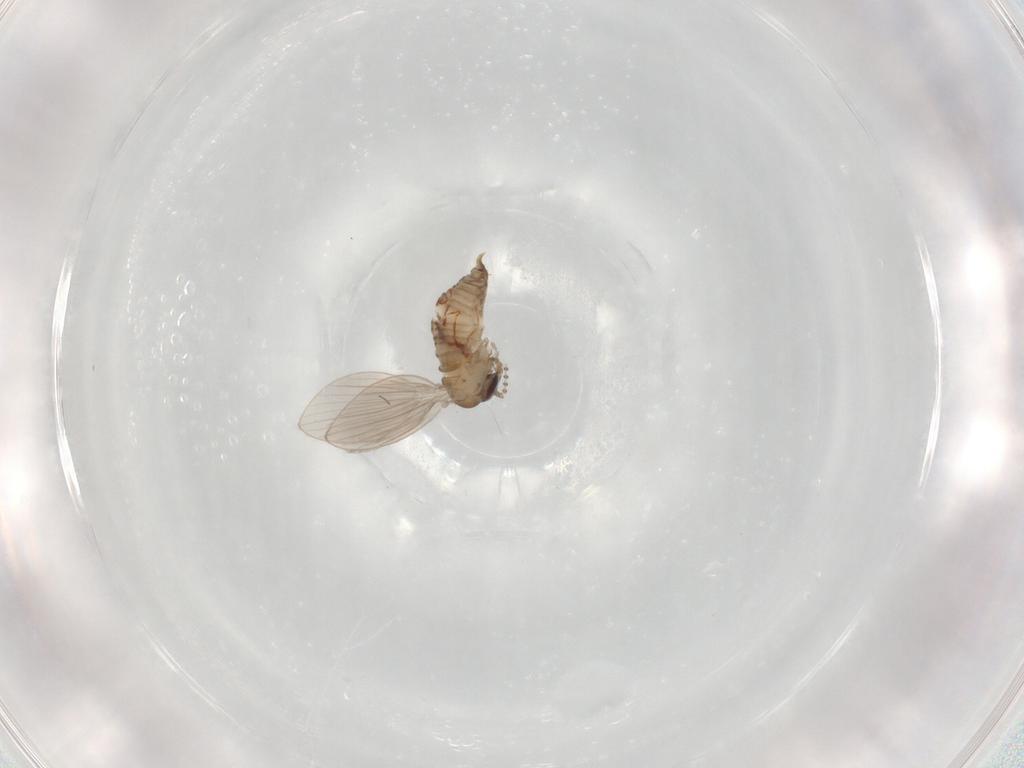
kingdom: Animalia
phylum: Arthropoda
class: Insecta
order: Diptera
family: Psychodidae
